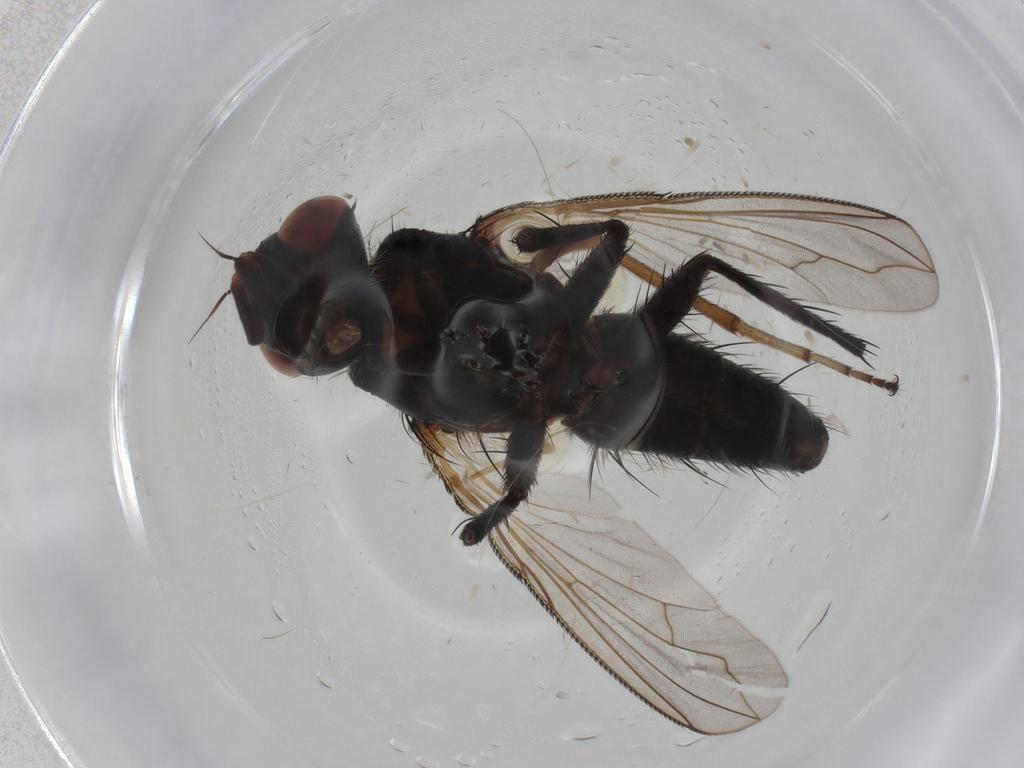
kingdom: Animalia
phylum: Arthropoda
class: Insecta
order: Diptera
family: Tachinidae
